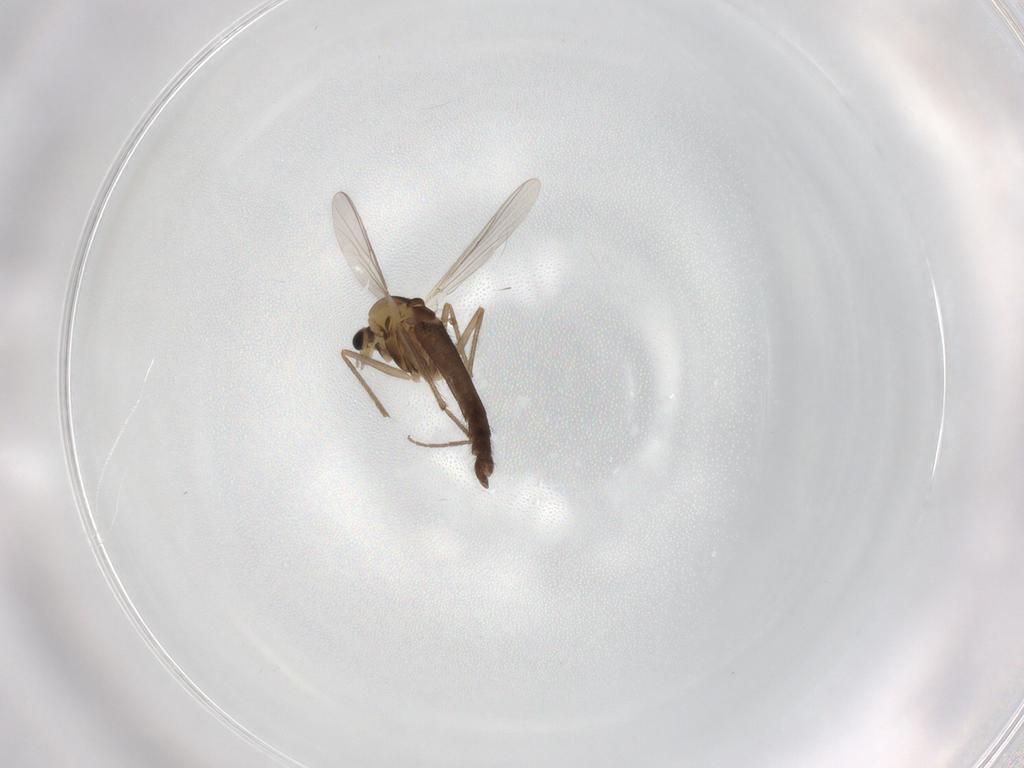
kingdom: Animalia
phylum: Arthropoda
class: Insecta
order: Diptera
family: Chironomidae
